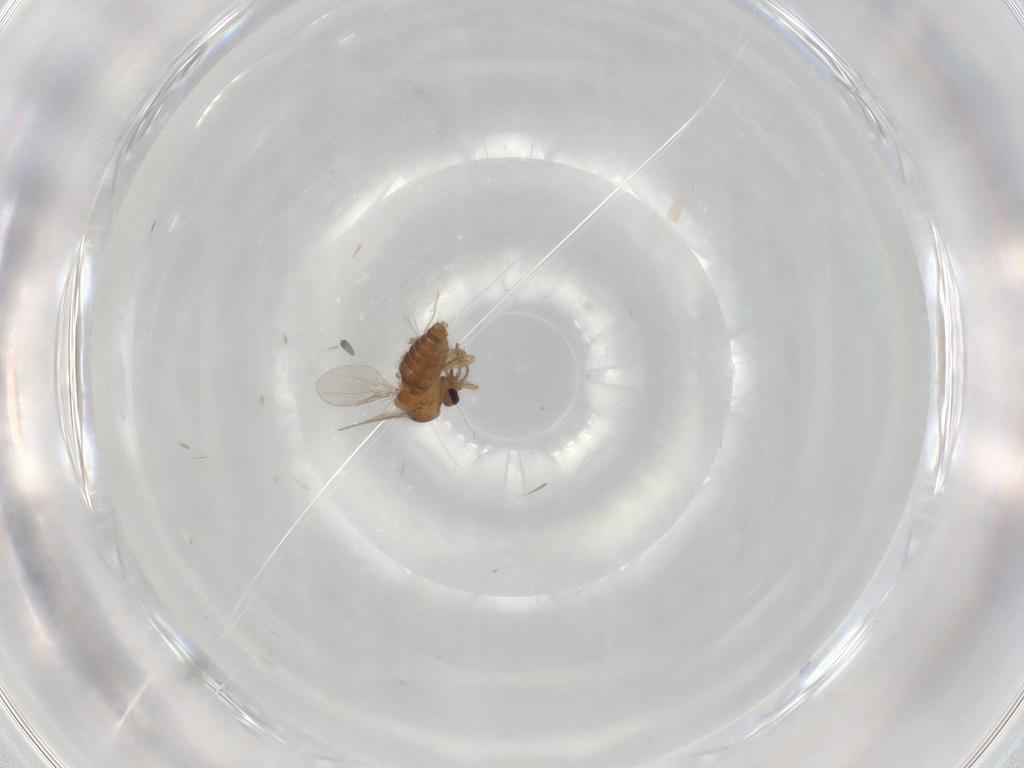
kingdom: Animalia
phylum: Arthropoda
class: Insecta
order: Diptera
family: Ceratopogonidae
